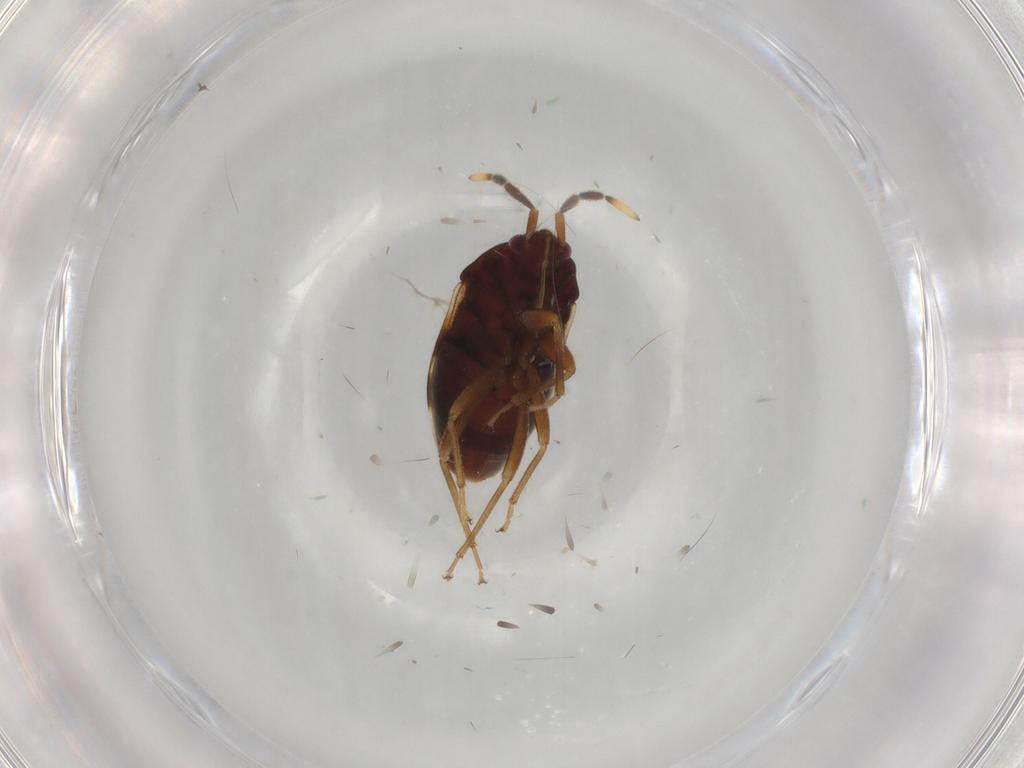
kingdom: Animalia
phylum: Arthropoda
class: Insecta
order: Hemiptera
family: Rhyparochromidae
